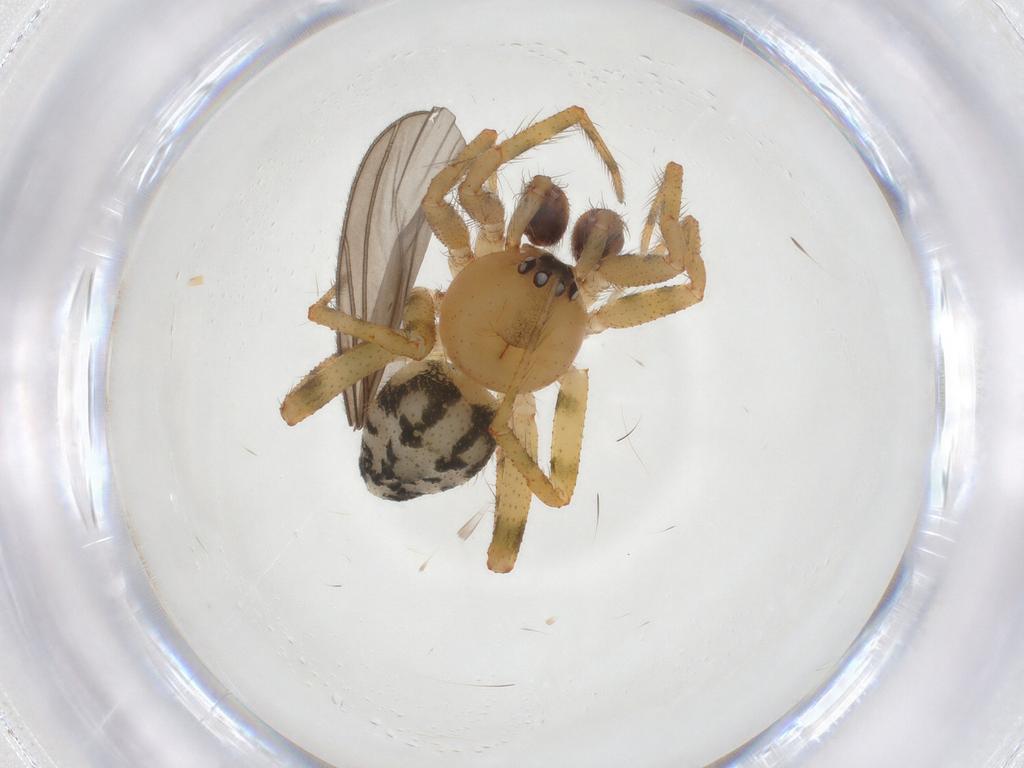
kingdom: Animalia
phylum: Arthropoda
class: Arachnida
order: Araneae
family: Theridiidae
